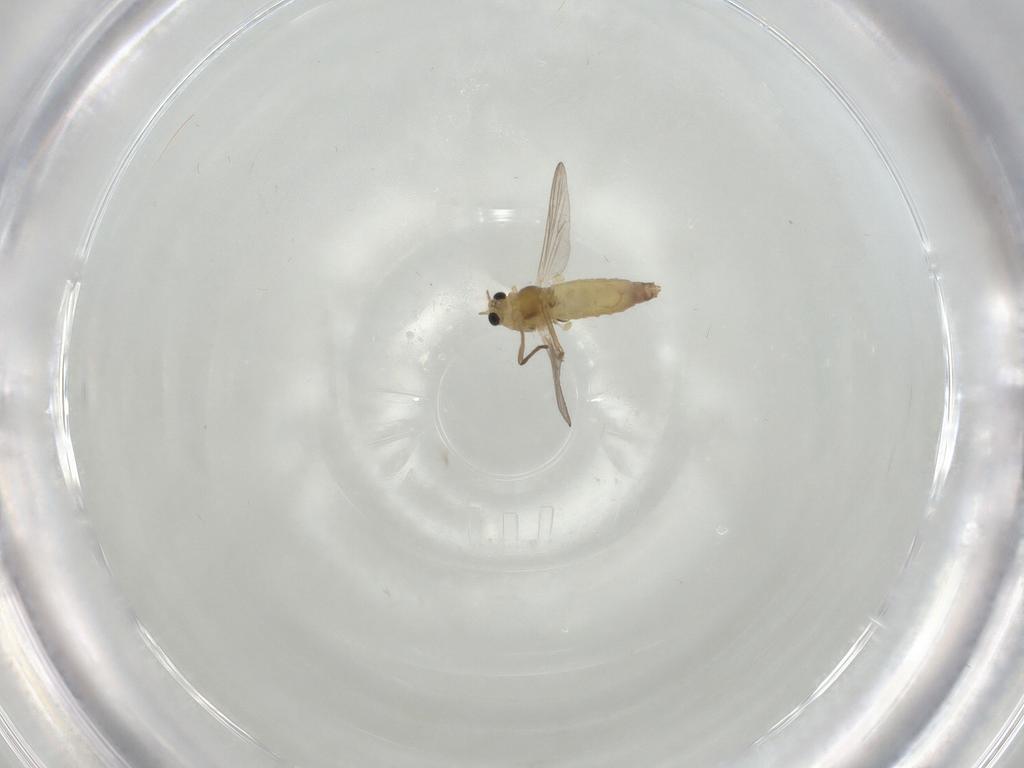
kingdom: Animalia
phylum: Arthropoda
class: Insecta
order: Diptera
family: Chironomidae
